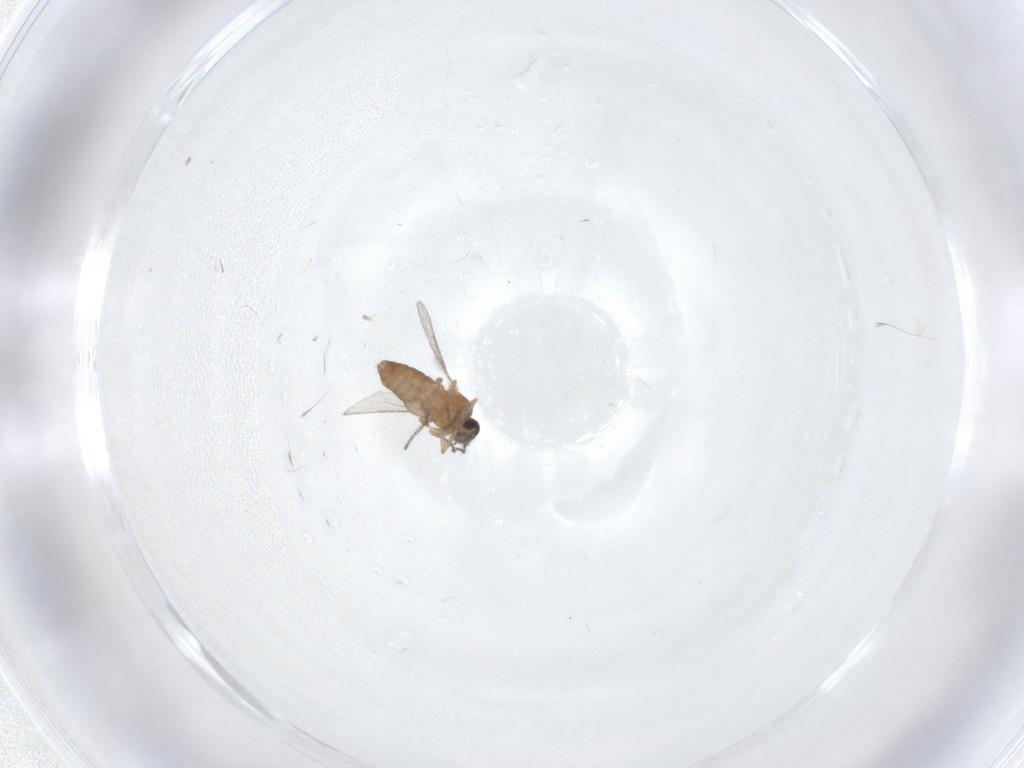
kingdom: Animalia
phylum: Arthropoda
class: Insecta
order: Diptera
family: Ceratopogonidae
